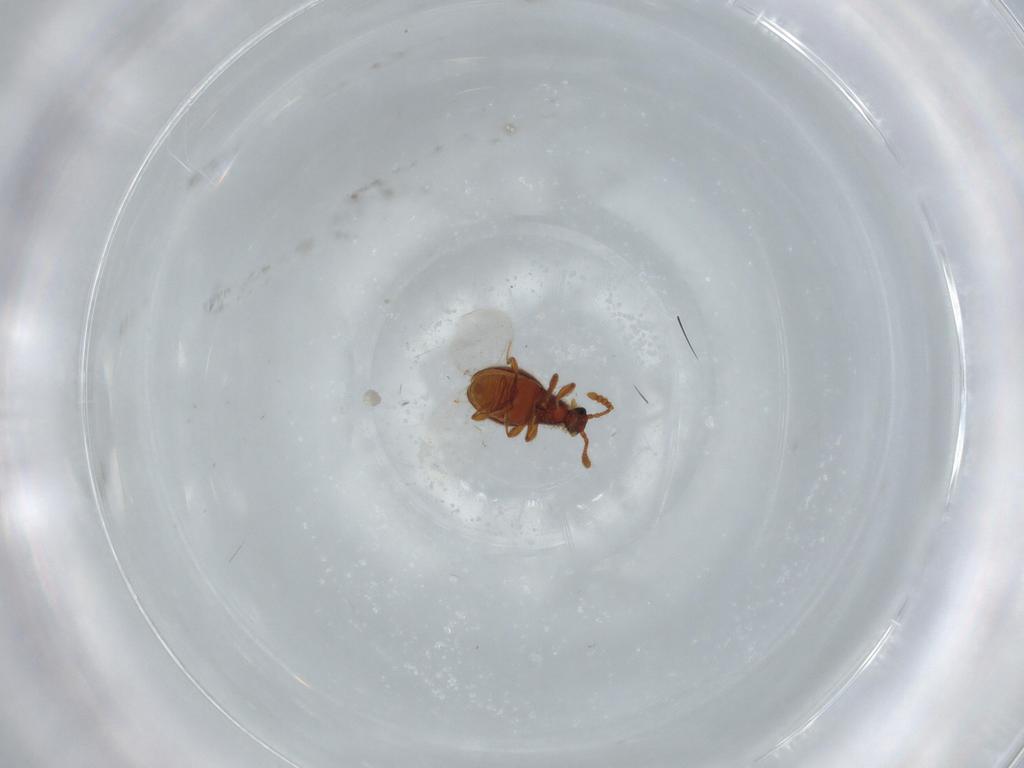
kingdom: Animalia
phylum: Arthropoda
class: Insecta
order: Coleoptera
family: Staphylinidae
